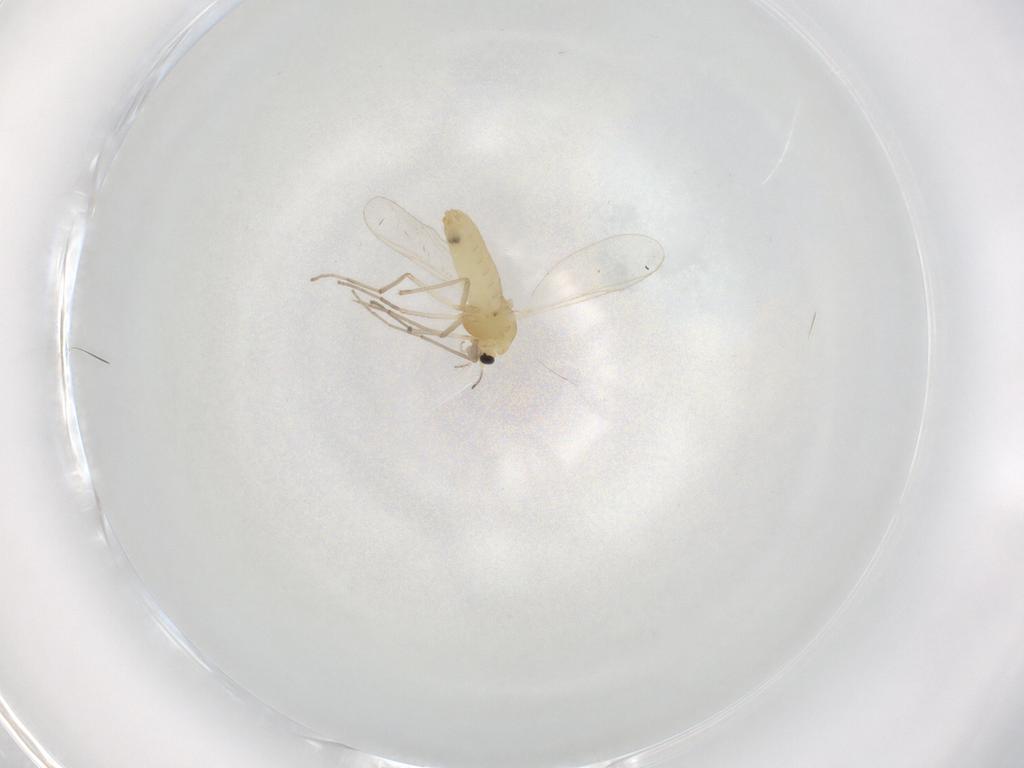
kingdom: Animalia
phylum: Arthropoda
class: Insecta
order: Diptera
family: Chironomidae
